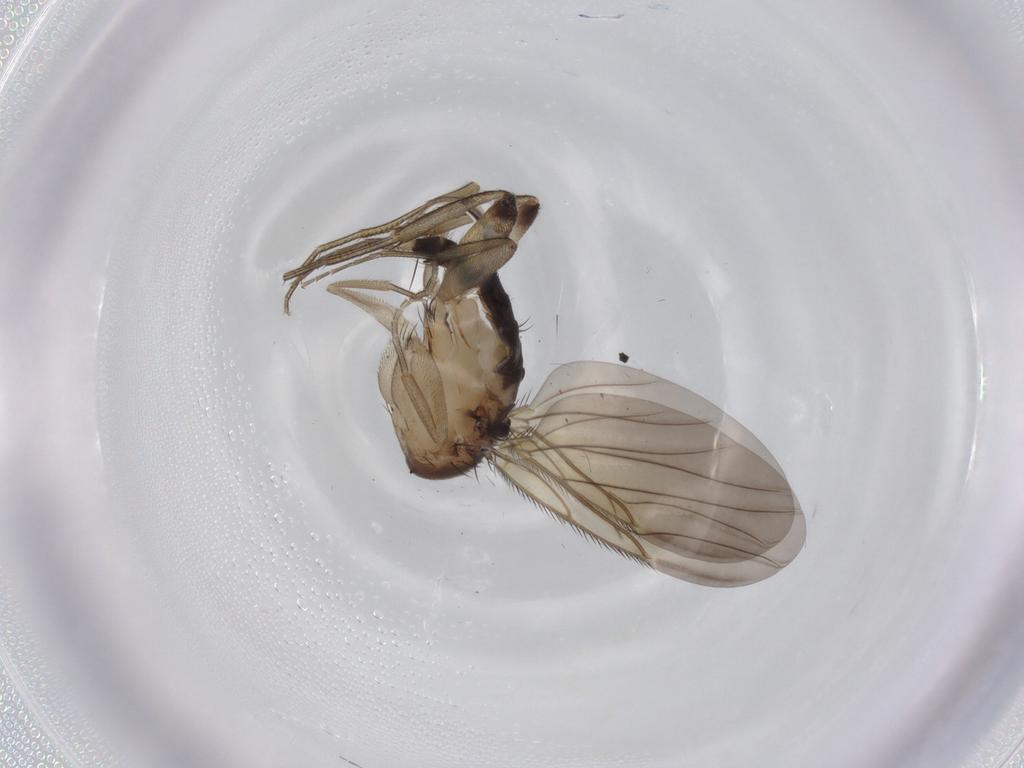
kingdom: Animalia
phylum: Arthropoda
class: Insecta
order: Diptera
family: Phoridae
